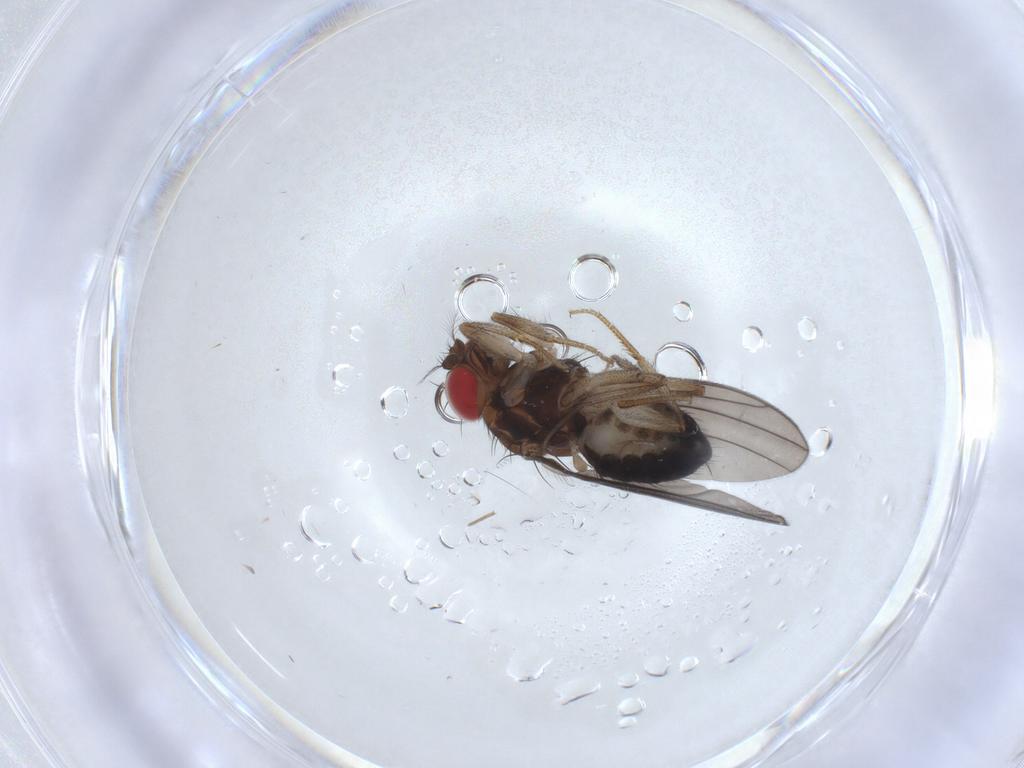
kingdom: Animalia
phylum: Arthropoda
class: Insecta
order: Diptera
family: Drosophilidae
